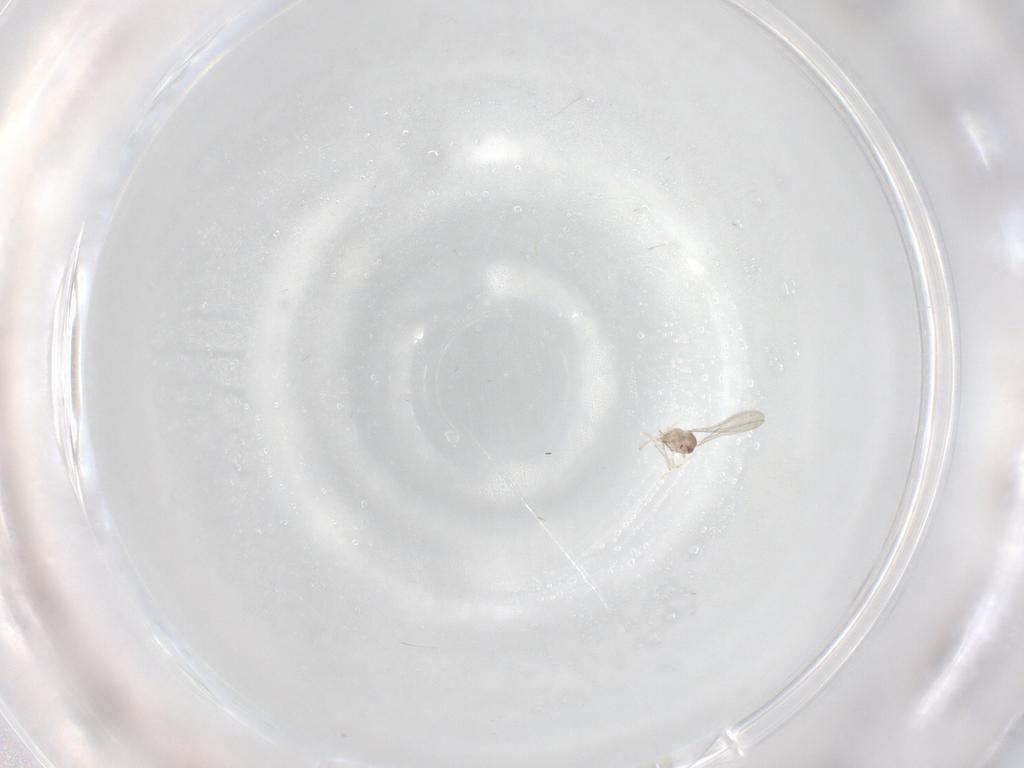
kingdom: Animalia
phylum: Arthropoda
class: Insecta
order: Diptera
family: Cecidomyiidae
